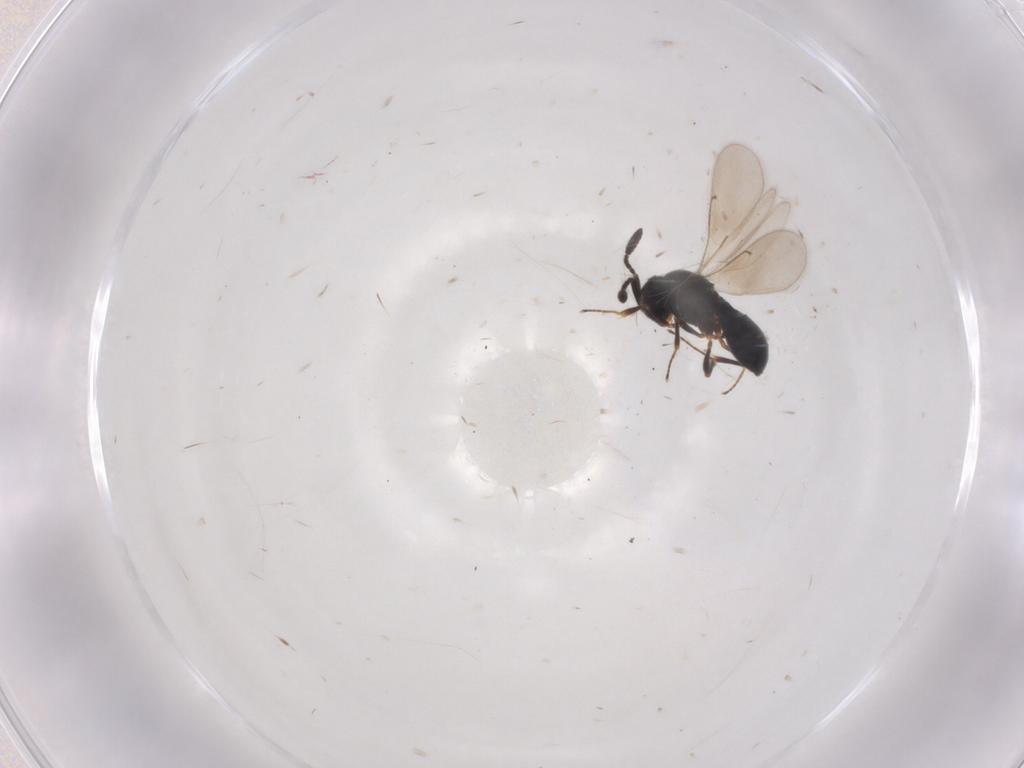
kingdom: Animalia
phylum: Arthropoda
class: Insecta
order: Hymenoptera
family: Scelionidae
